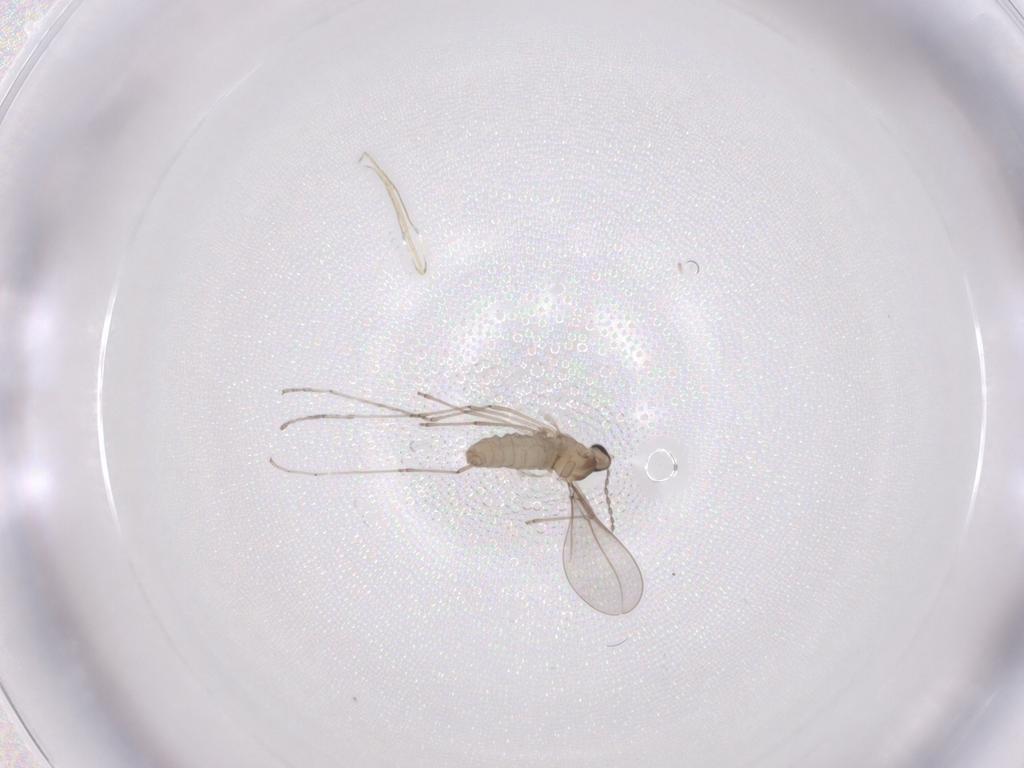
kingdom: Animalia
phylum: Arthropoda
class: Insecta
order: Diptera
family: Cecidomyiidae
